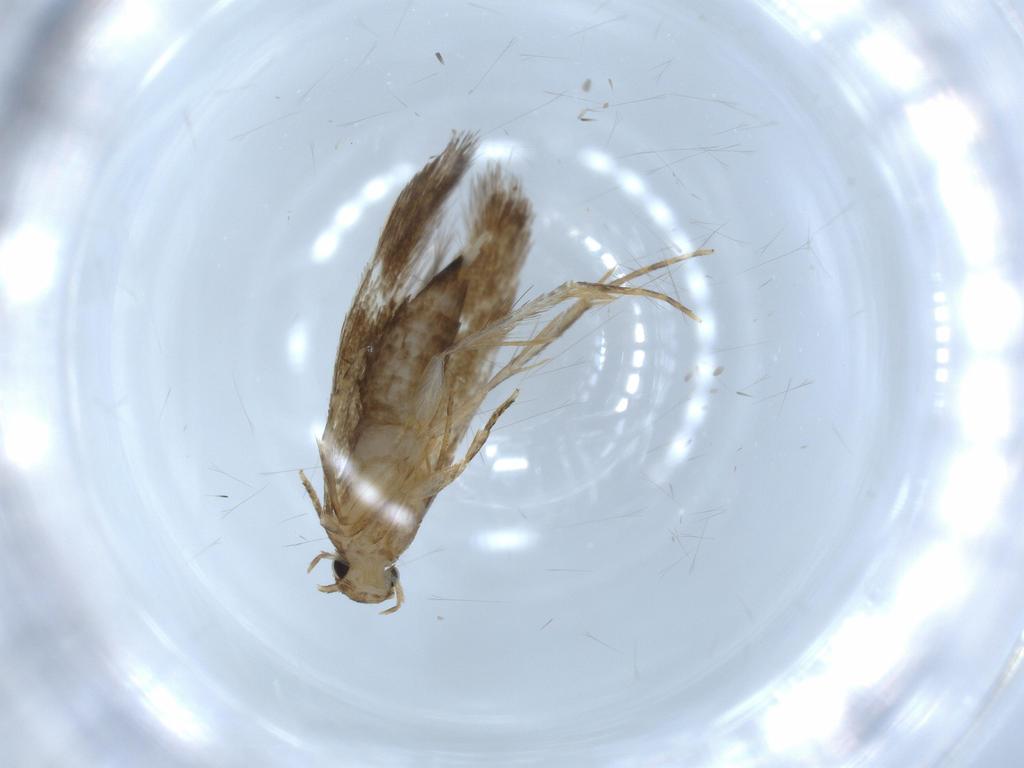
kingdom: Animalia
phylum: Arthropoda
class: Insecta
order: Lepidoptera
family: Tineidae
